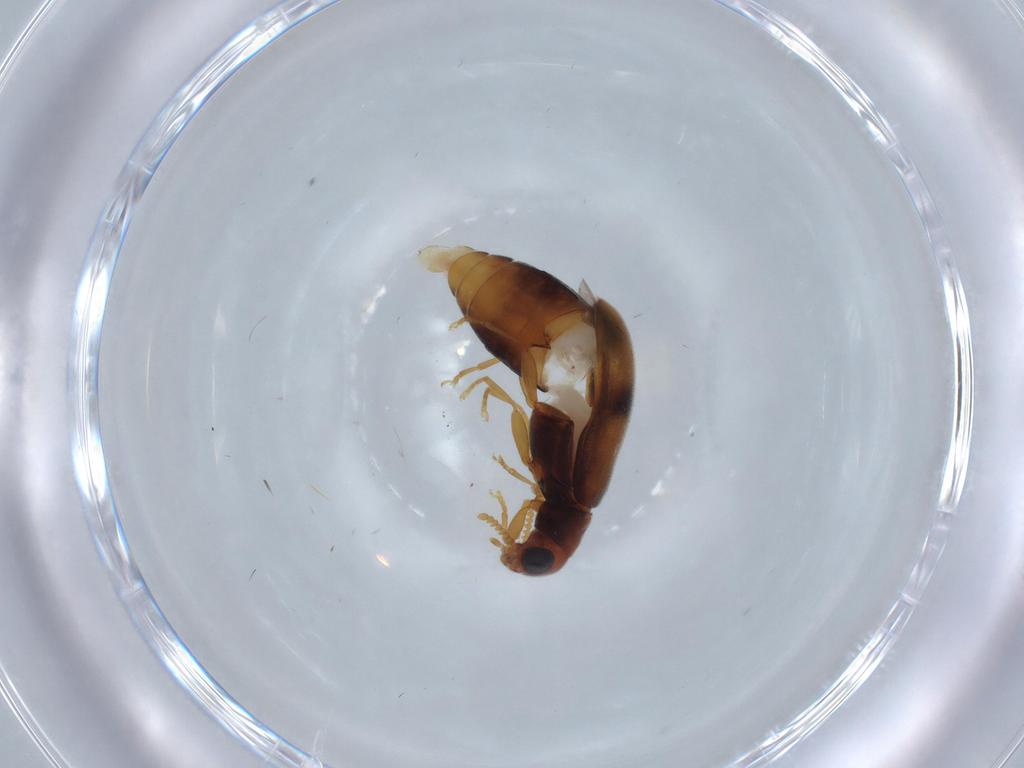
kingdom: Animalia
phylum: Arthropoda
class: Insecta
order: Coleoptera
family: Mycteridae
